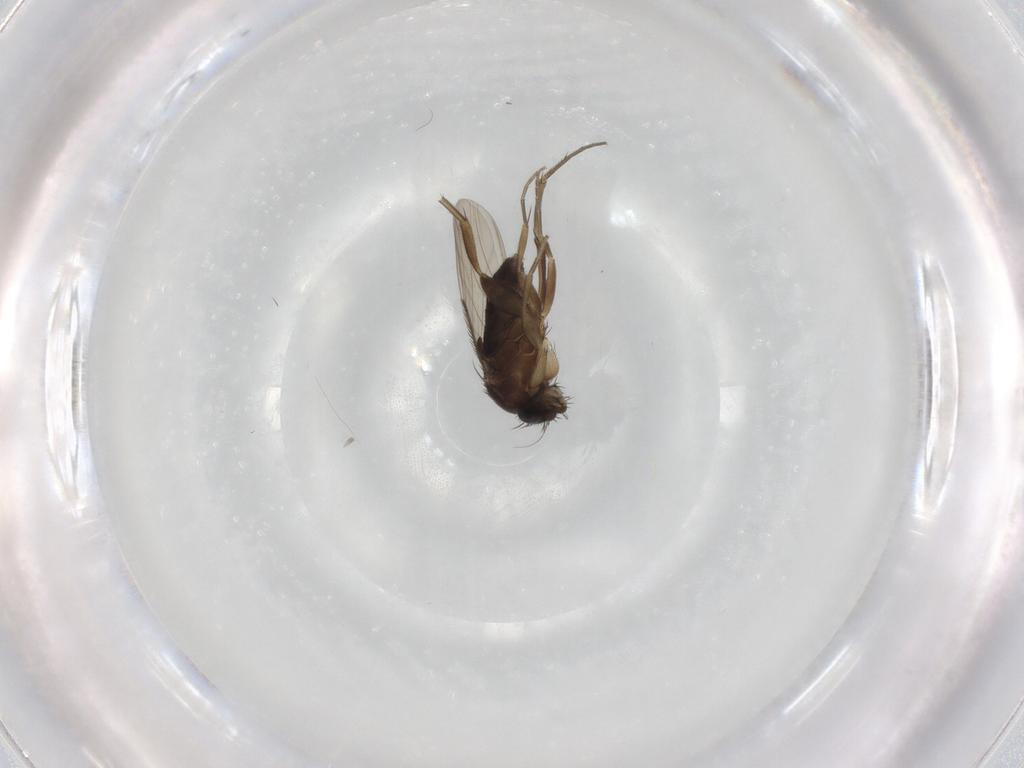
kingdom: Animalia
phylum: Arthropoda
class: Insecta
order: Diptera
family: Phoridae
